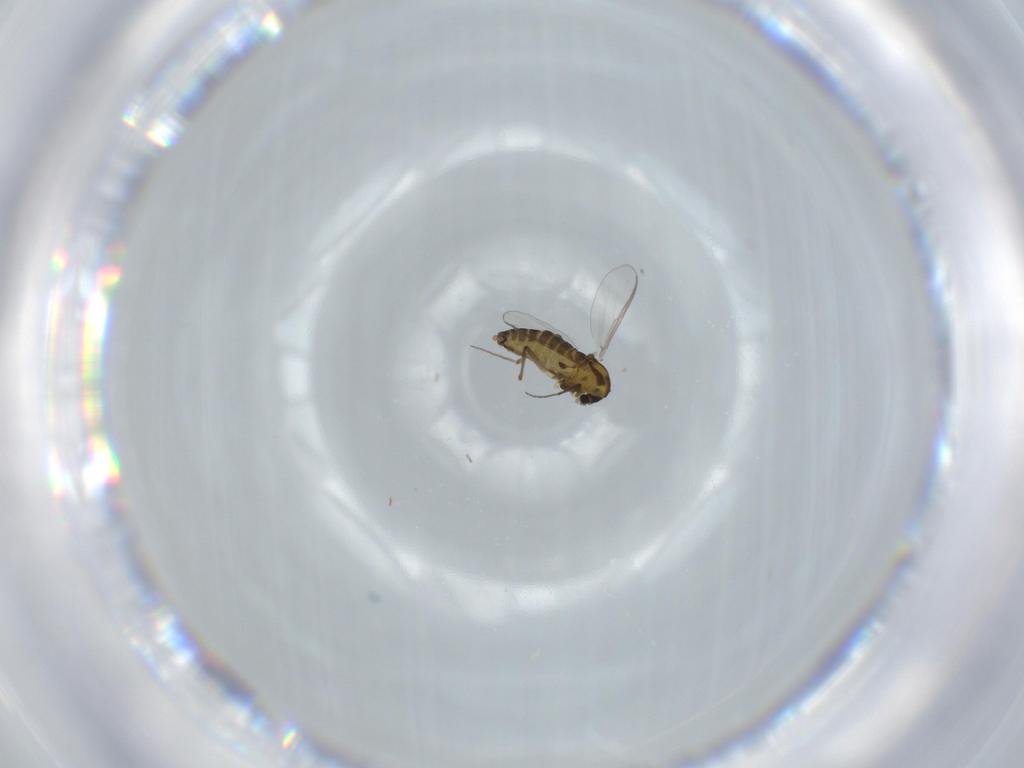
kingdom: Animalia
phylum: Arthropoda
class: Insecta
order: Diptera
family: Chironomidae
